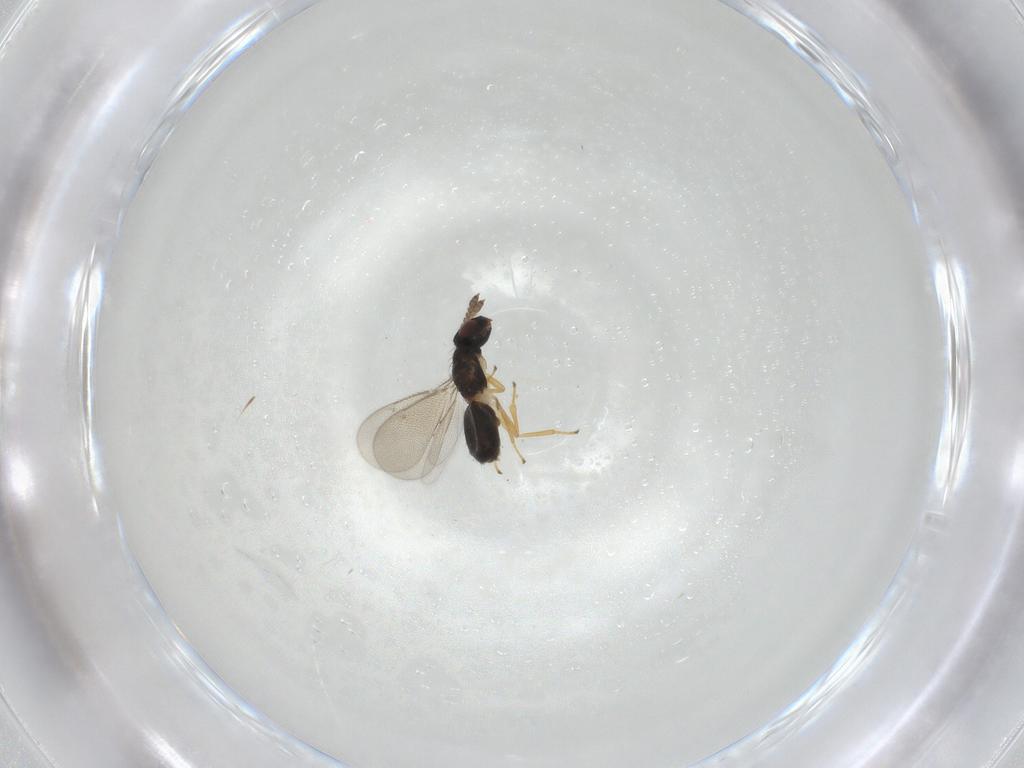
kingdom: Animalia
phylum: Arthropoda
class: Insecta
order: Hymenoptera
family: Eulophidae
